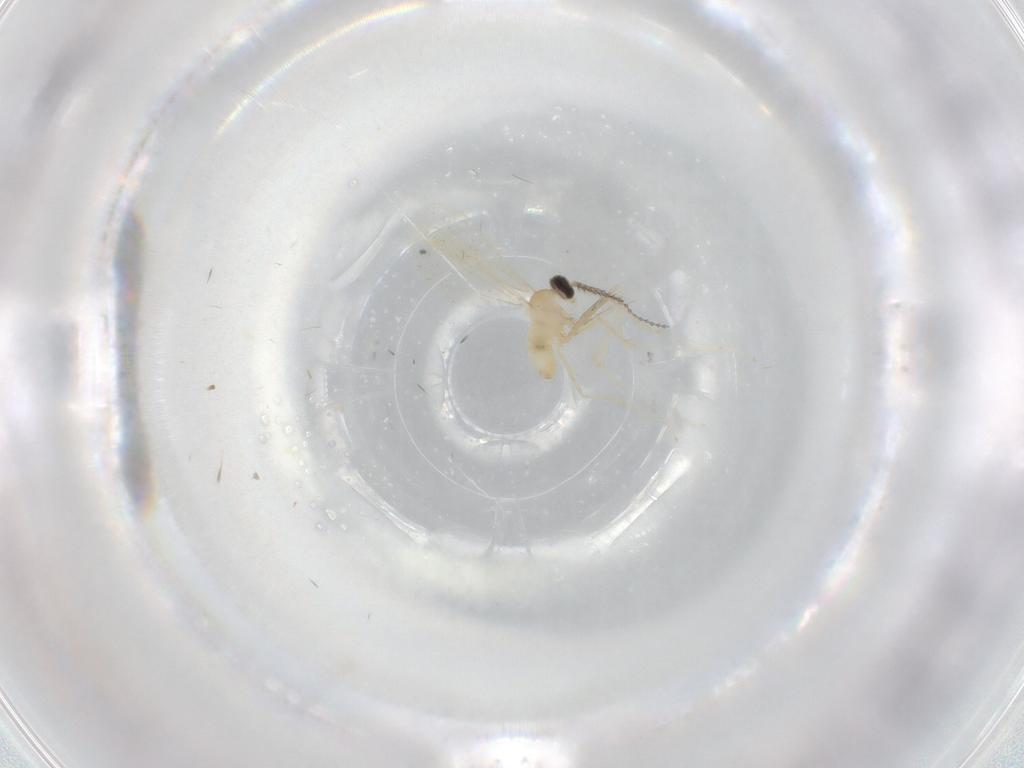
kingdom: Animalia
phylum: Arthropoda
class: Insecta
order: Diptera
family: Cecidomyiidae
